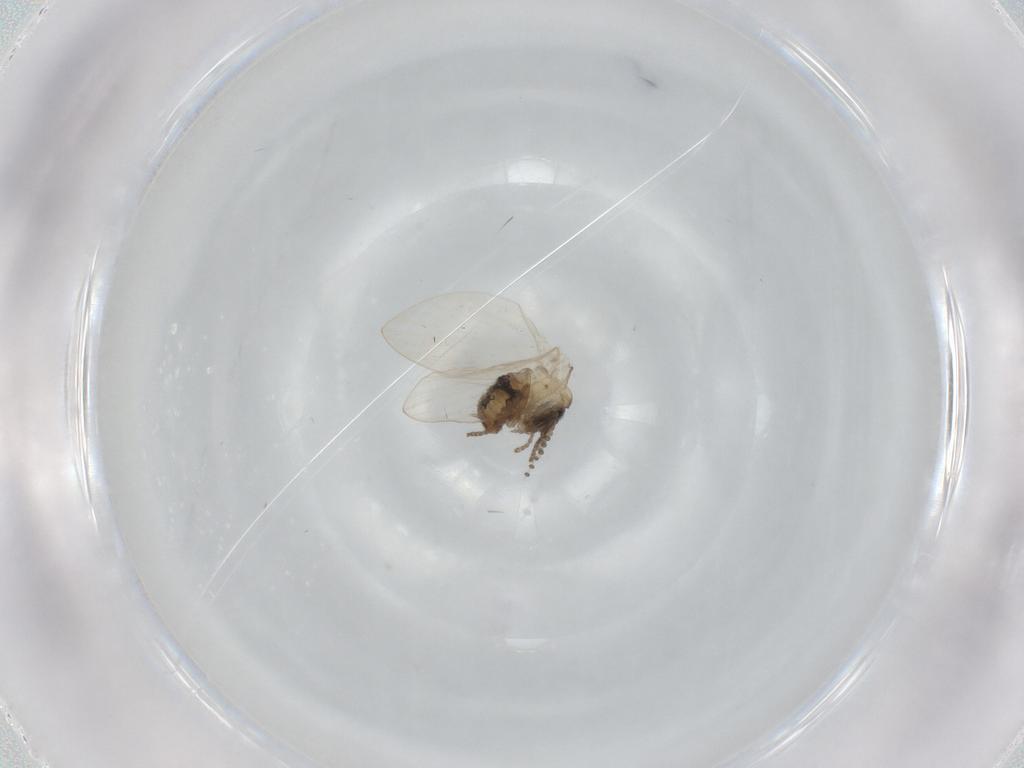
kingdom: Animalia
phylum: Arthropoda
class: Insecta
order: Diptera
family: Psychodidae
